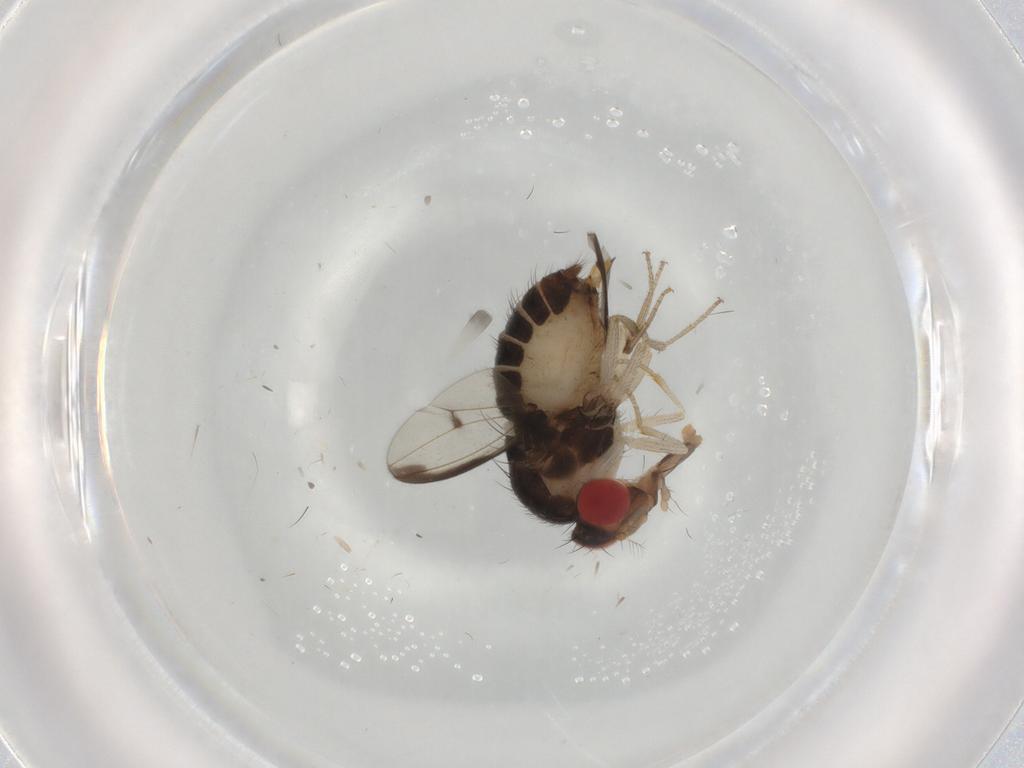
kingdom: Animalia
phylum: Arthropoda
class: Insecta
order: Diptera
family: Drosophilidae
